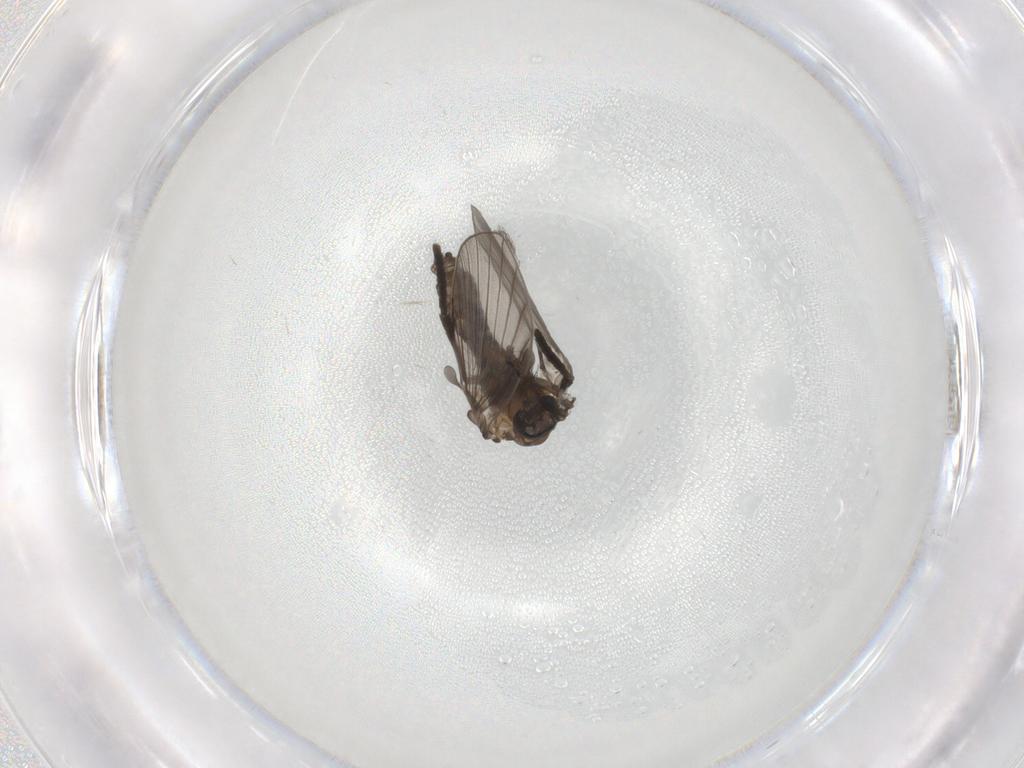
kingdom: Animalia
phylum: Arthropoda
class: Insecta
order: Diptera
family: Psychodidae
